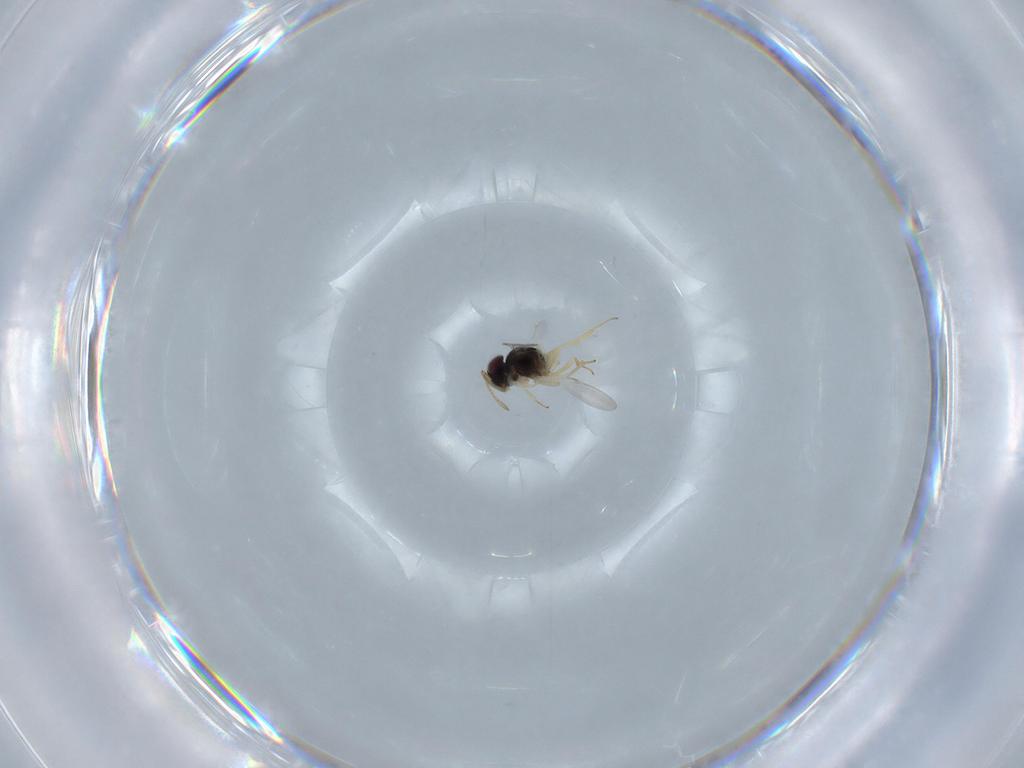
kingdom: Animalia
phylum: Arthropoda
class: Insecta
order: Hymenoptera
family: Encyrtidae
